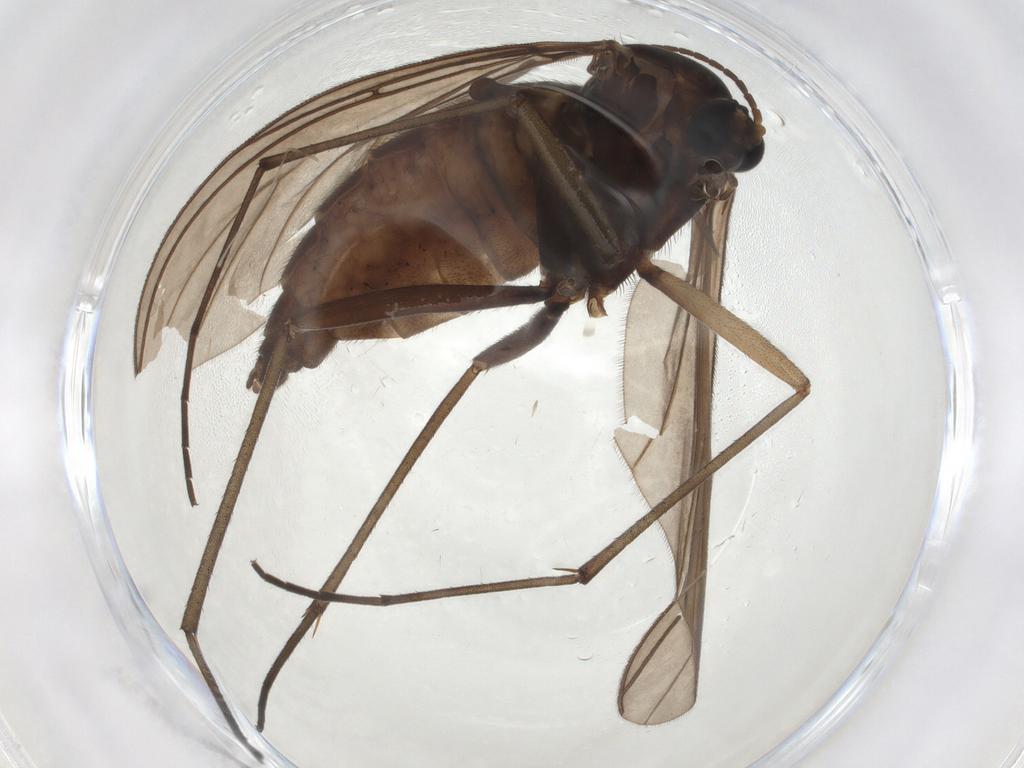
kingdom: Animalia
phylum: Arthropoda
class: Insecta
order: Diptera
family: Sciaridae
